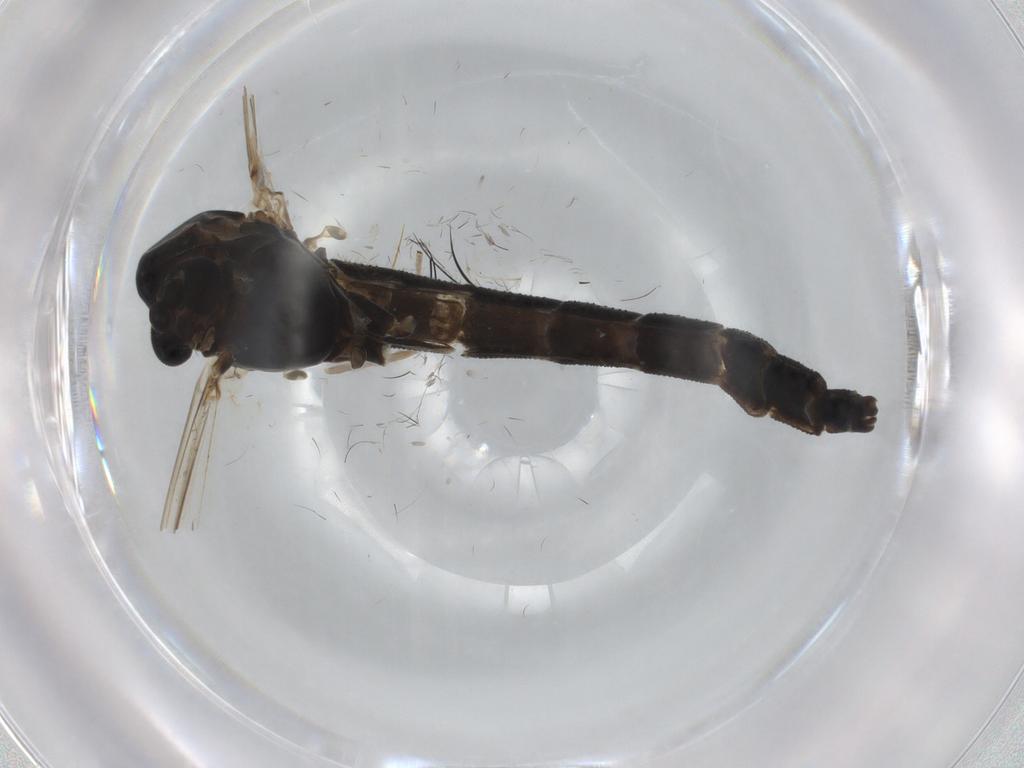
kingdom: Animalia
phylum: Arthropoda
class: Insecta
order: Diptera
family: Chironomidae
